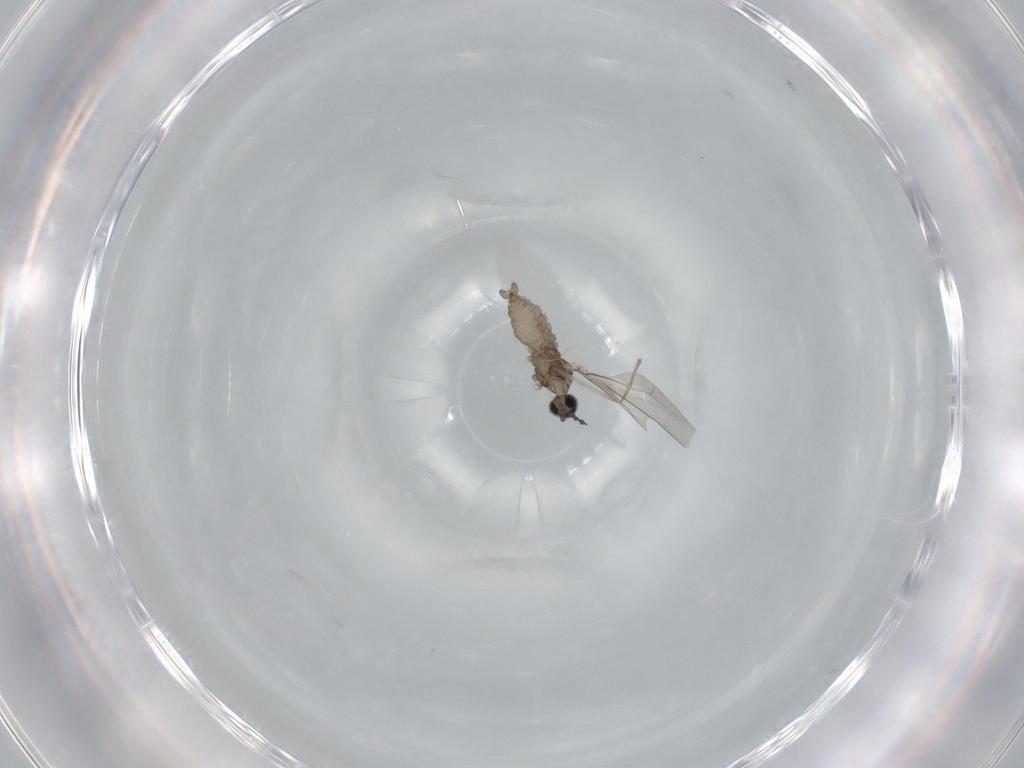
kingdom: Animalia
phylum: Arthropoda
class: Insecta
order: Diptera
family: Chironomidae
